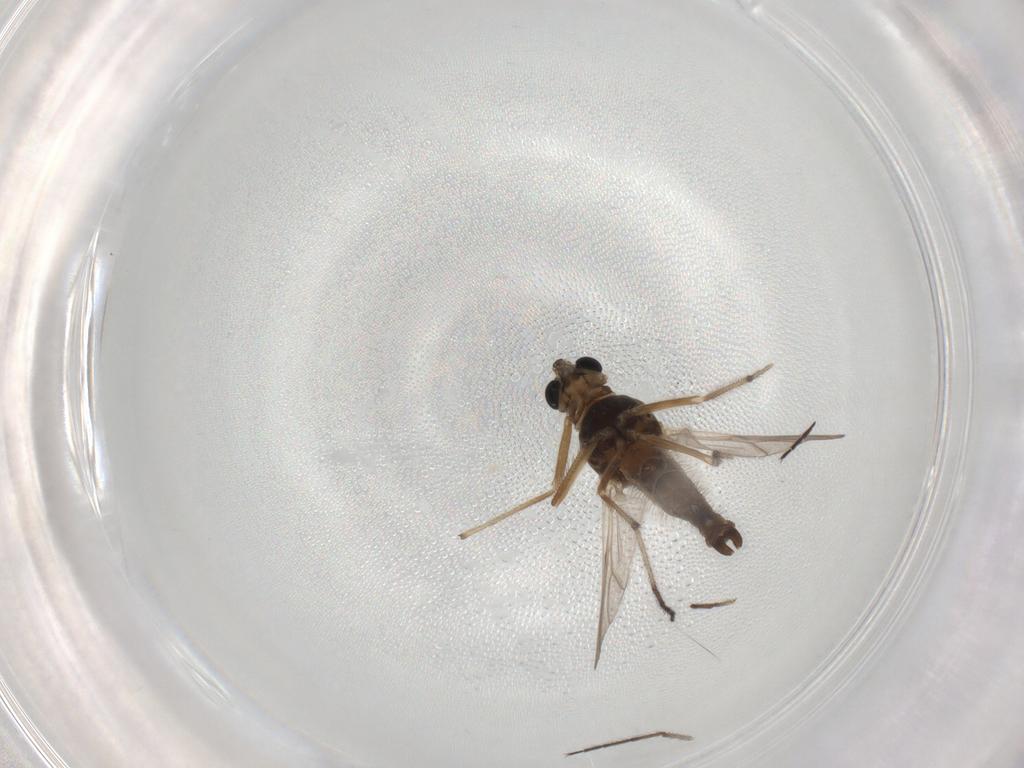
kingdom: Animalia
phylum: Arthropoda
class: Insecta
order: Diptera
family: Chironomidae
